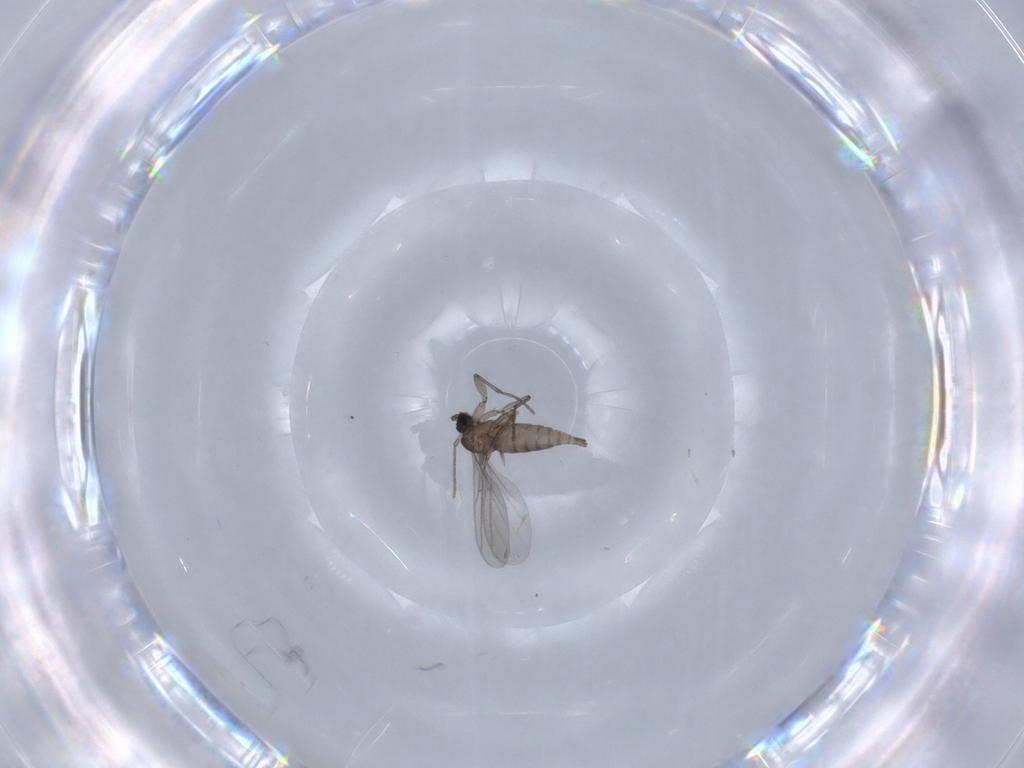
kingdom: Animalia
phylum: Arthropoda
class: Insecta
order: Diptera
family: Sciaridae
